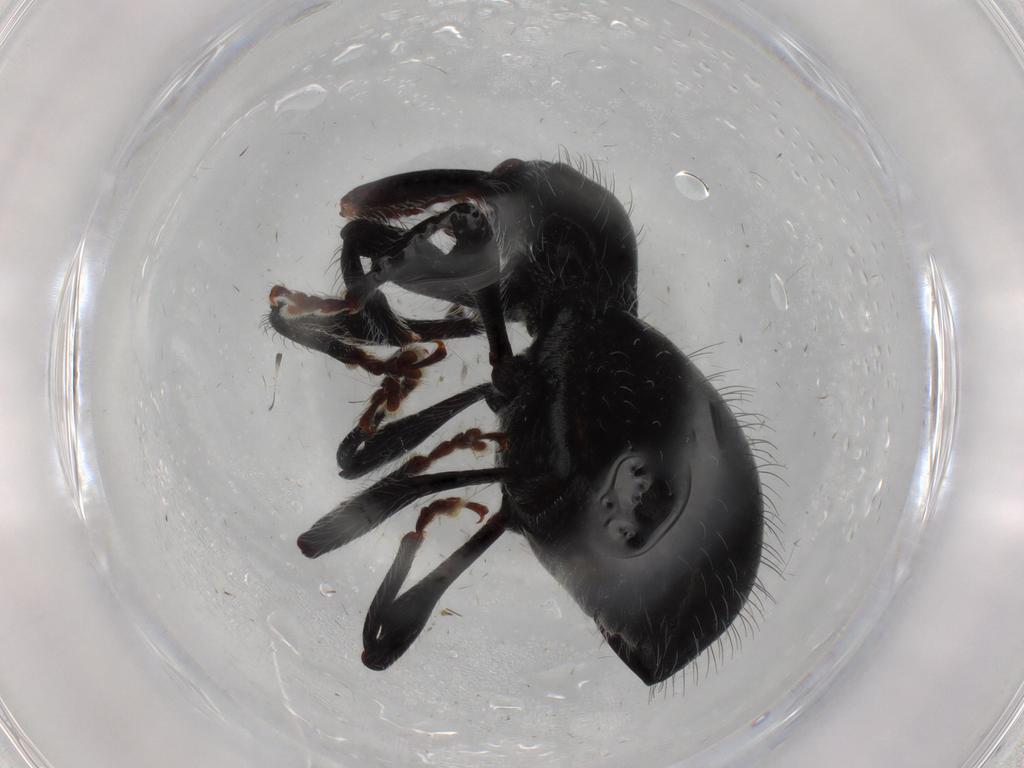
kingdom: Animalia
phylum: Arthropoda
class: Insecta
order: Coleoptera
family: Curculionidae
